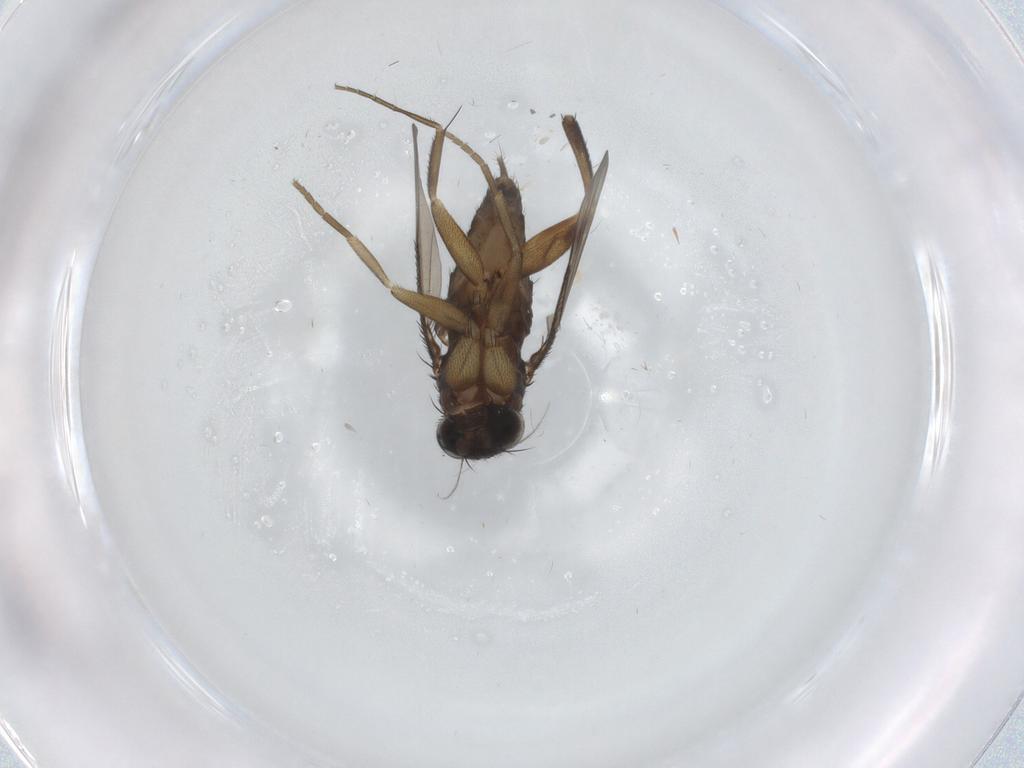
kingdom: Animalia
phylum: Arthropoda
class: Insecta
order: Diptera
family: Phoridae
